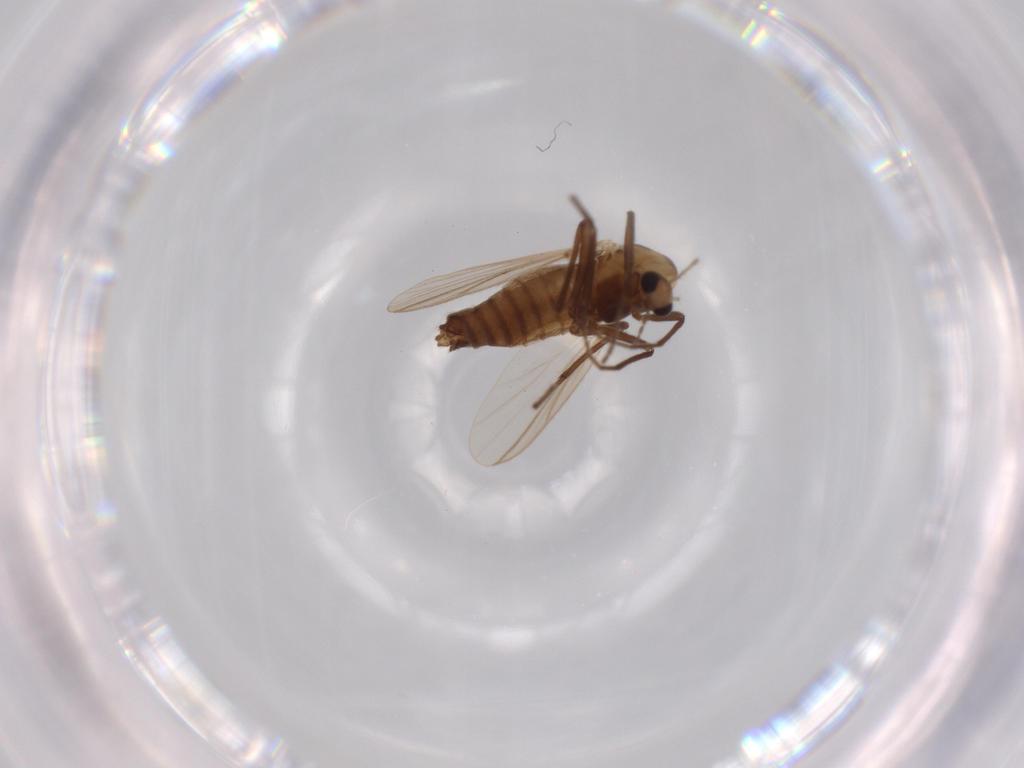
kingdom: Animalia
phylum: Arthropoda
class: Insecta
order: Diptera
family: Chironomidae
